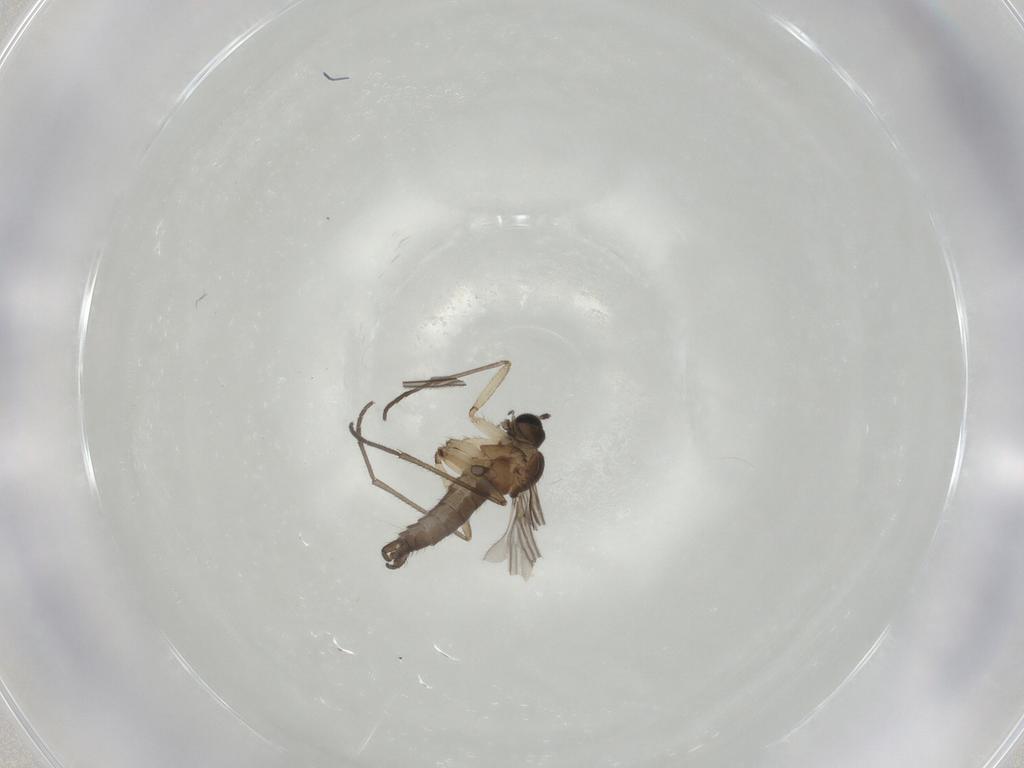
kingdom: Animalia
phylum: Arthropoda
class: Insecta
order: Diptera
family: Sciaridae
